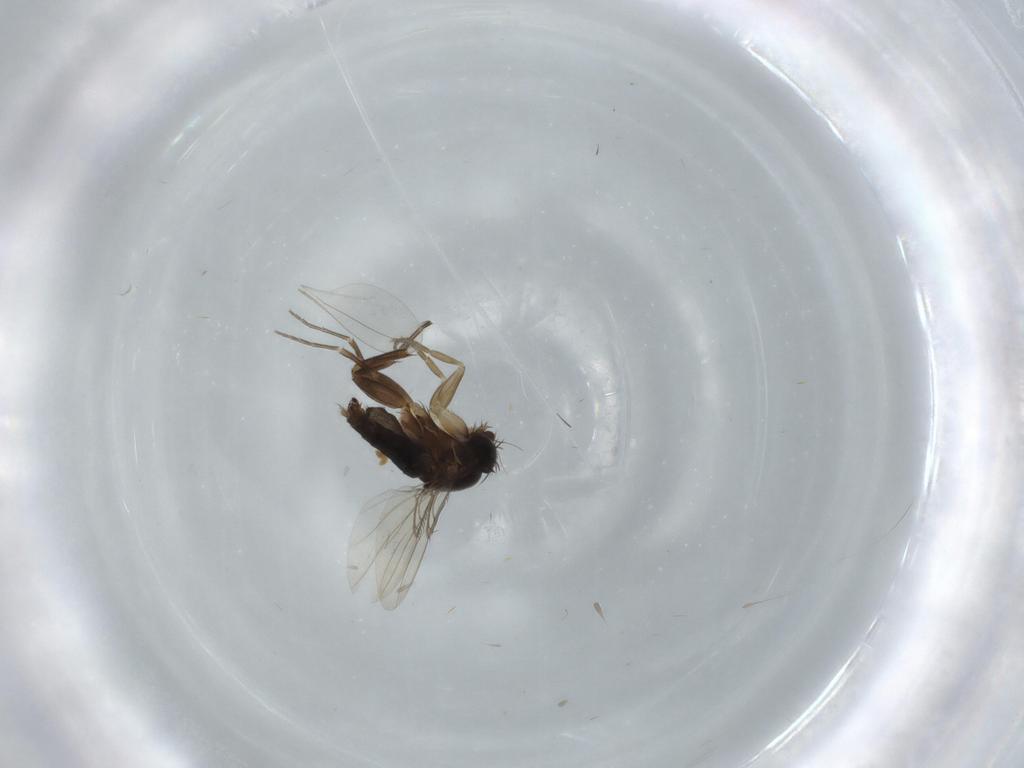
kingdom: Animalia
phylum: Arthropoda
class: Insecta
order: Diptera
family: Phoridae
